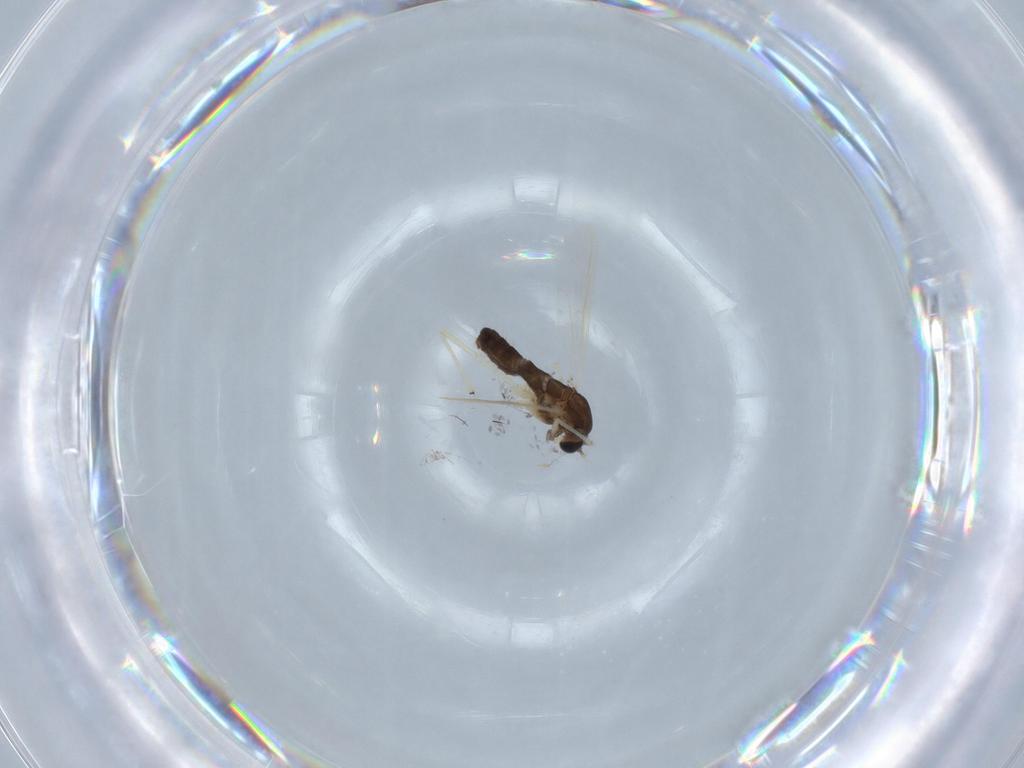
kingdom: Animalia
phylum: Arthropoda
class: Insecta
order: Diptera
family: Chironomidae
